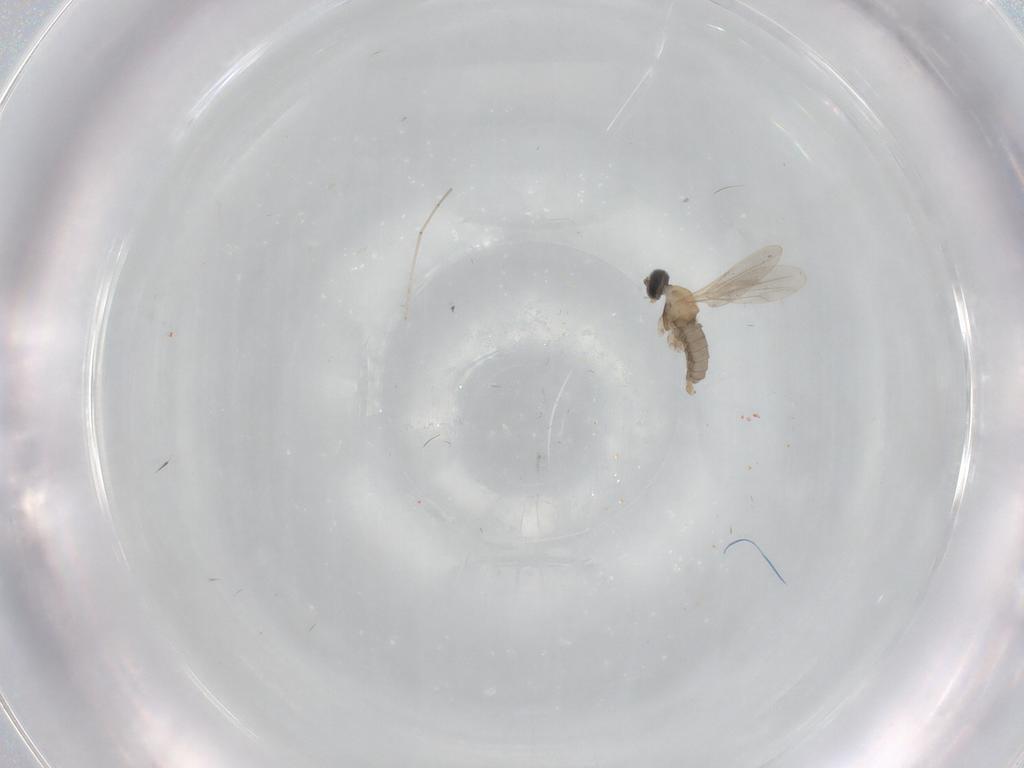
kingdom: Animalia
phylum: Arthropoda
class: Insecta
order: Diptera
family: Cecidomyiidae
